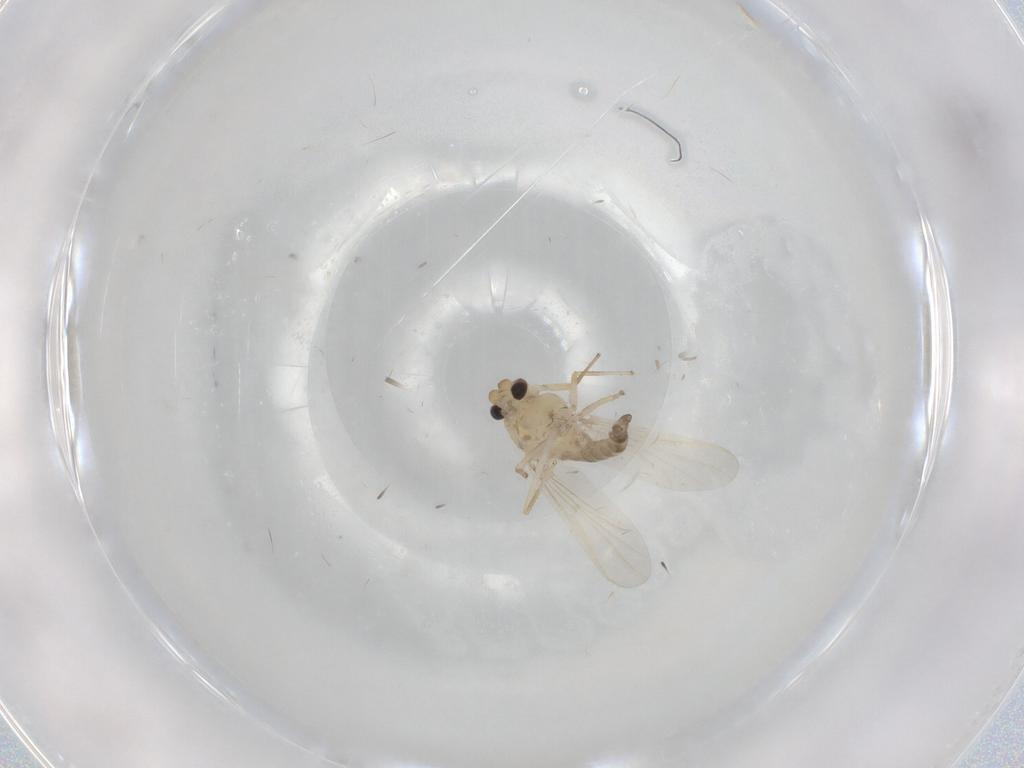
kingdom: Animalia
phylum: Arthropoda
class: Insecta
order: Diptera
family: Chironomidae
